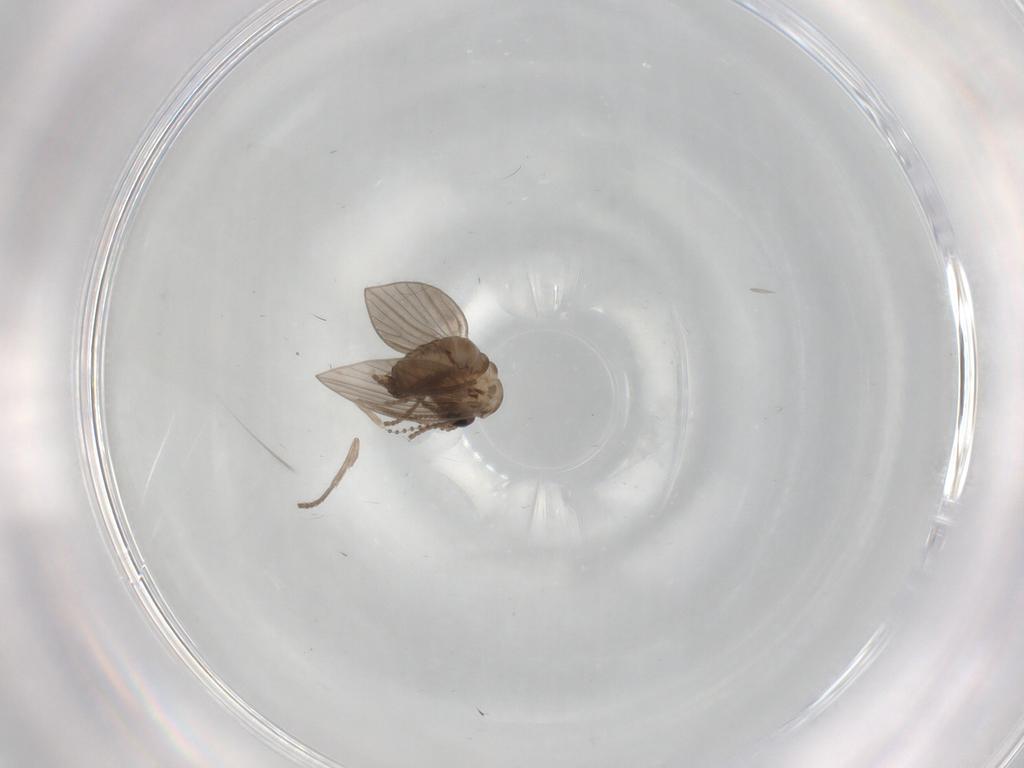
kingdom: Animalia
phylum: Arthropoda
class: Insecta
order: Diptera
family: Psychodidae
